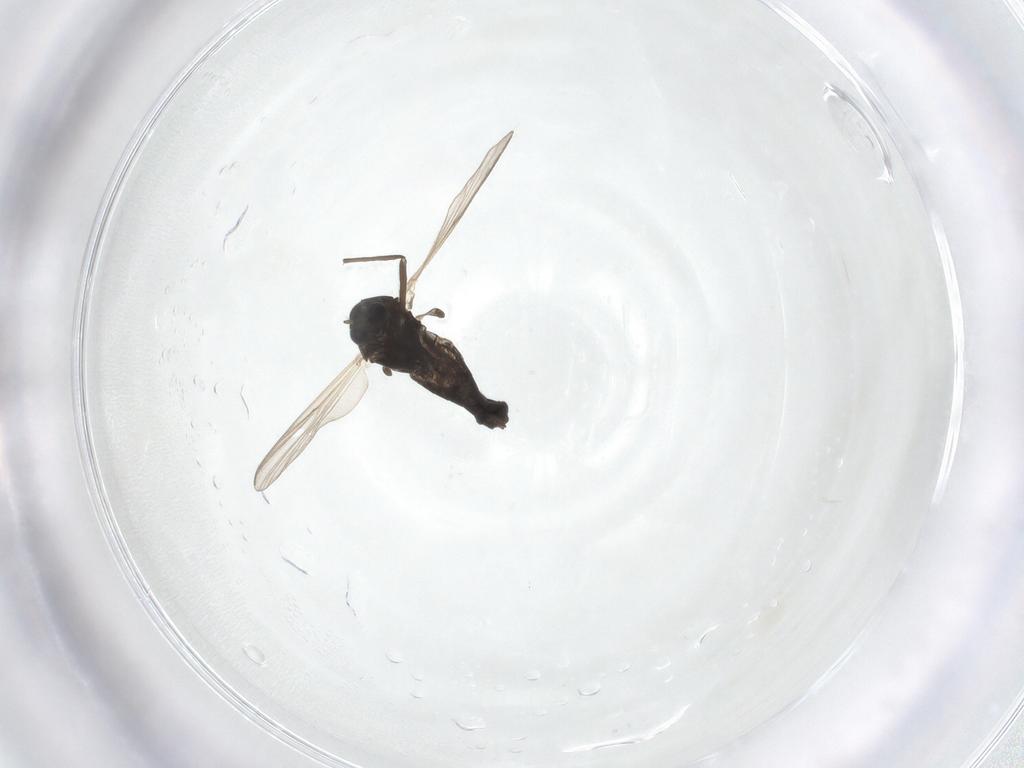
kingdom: Animalia
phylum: Arthropoda
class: Insecta
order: Diptera
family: Chironomidae
